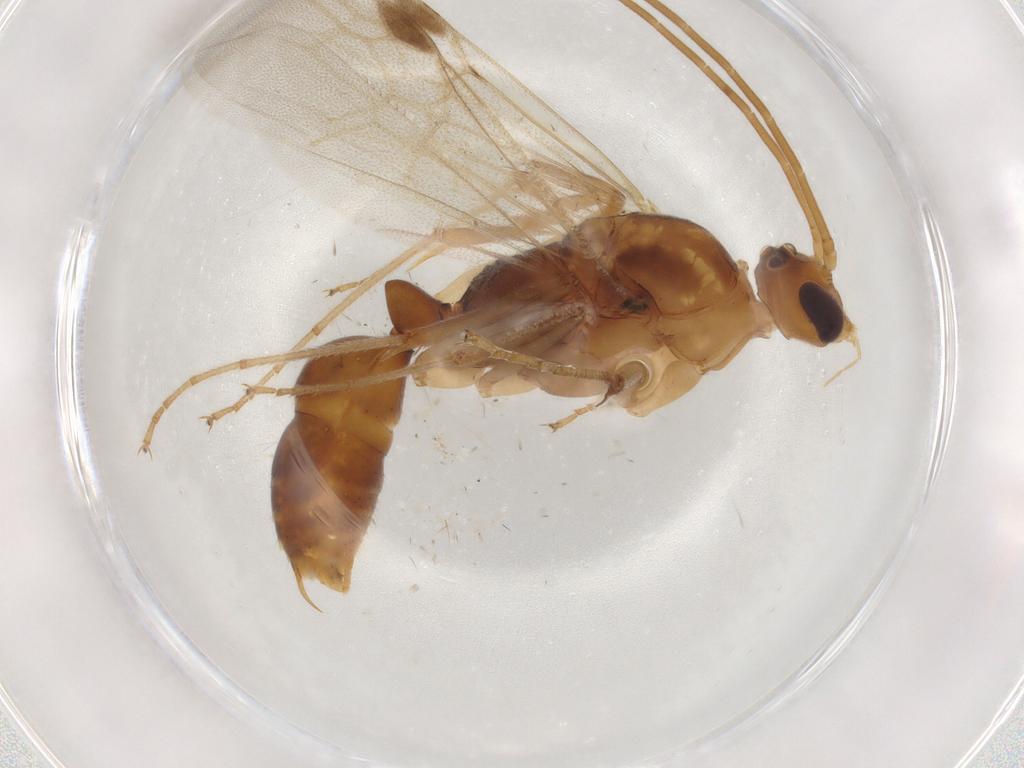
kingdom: Animalia
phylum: Arthropoda
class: Insecta
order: Hymenoptera
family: Formicidae
